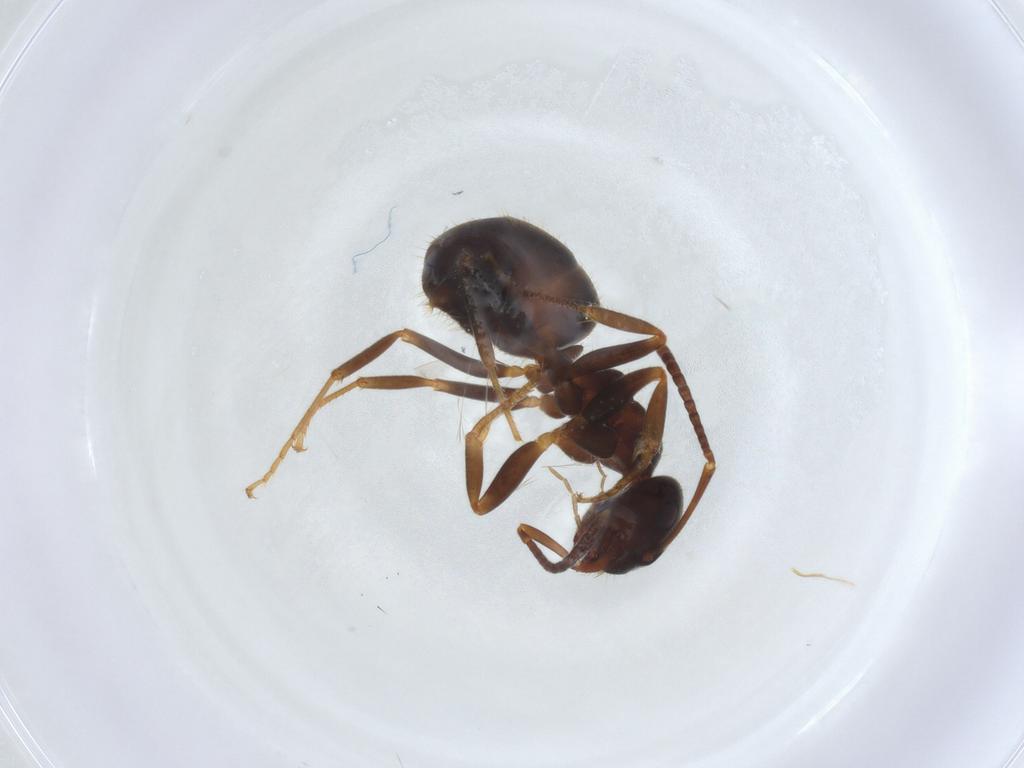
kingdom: Animalia
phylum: Arthropoda
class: Insecta
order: Hymenoptera
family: Formicidae
